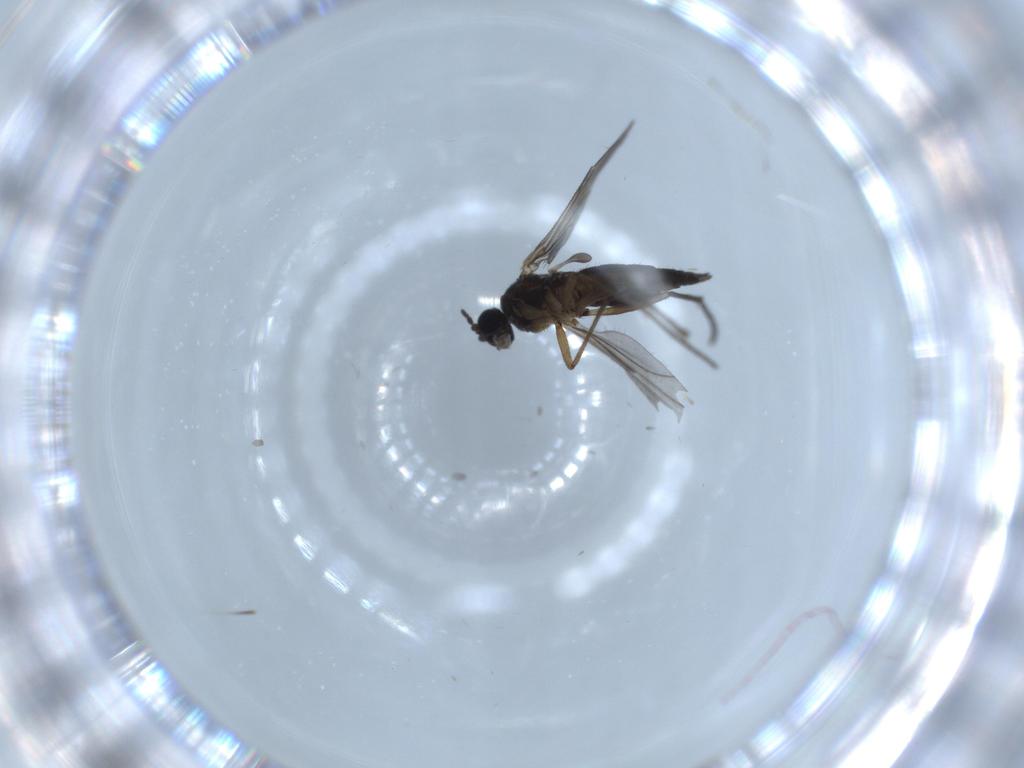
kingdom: Animalia
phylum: Arthropoda
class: Insecta
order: Diptera
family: Sciaridae
